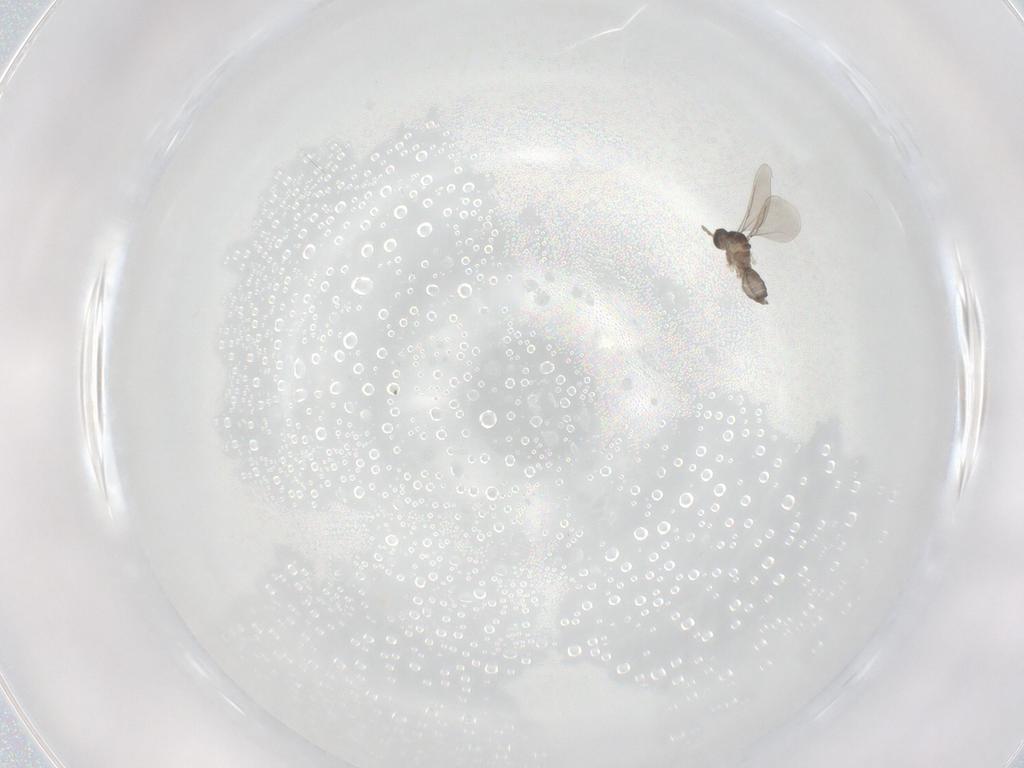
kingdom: Animalia
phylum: Arthropoda
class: Insecta
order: Diptera
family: Cecidomyiidae
